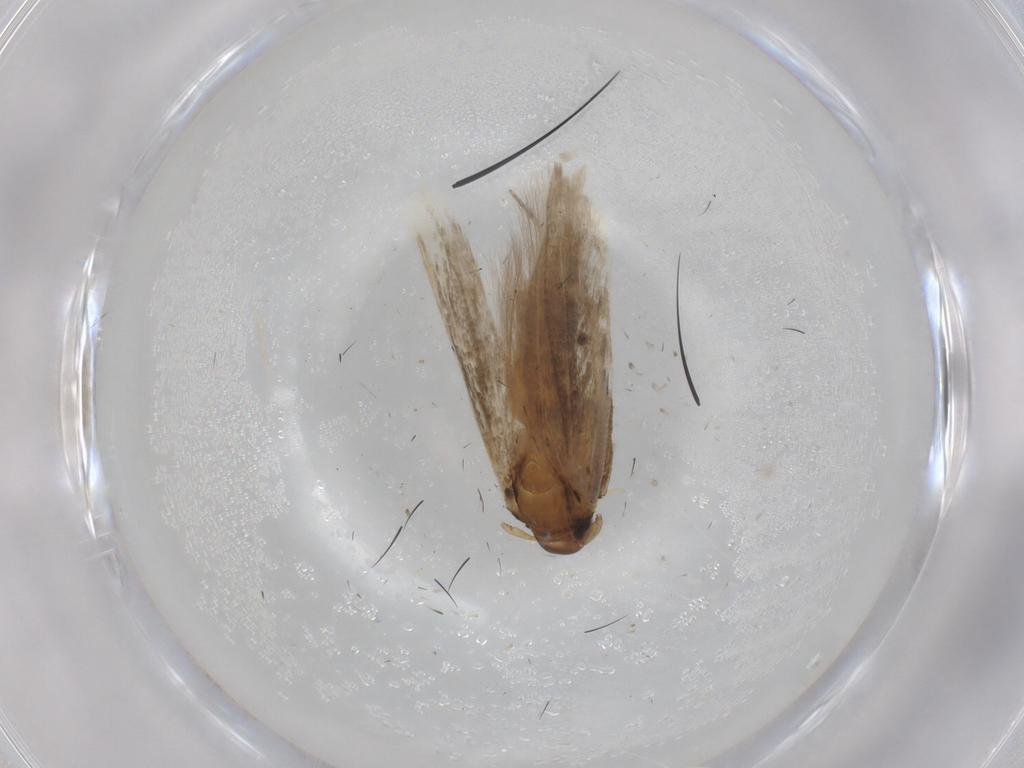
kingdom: Animalia
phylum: Arthropoda
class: Insecta
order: Lepidoptera
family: Cosmopterigidae
